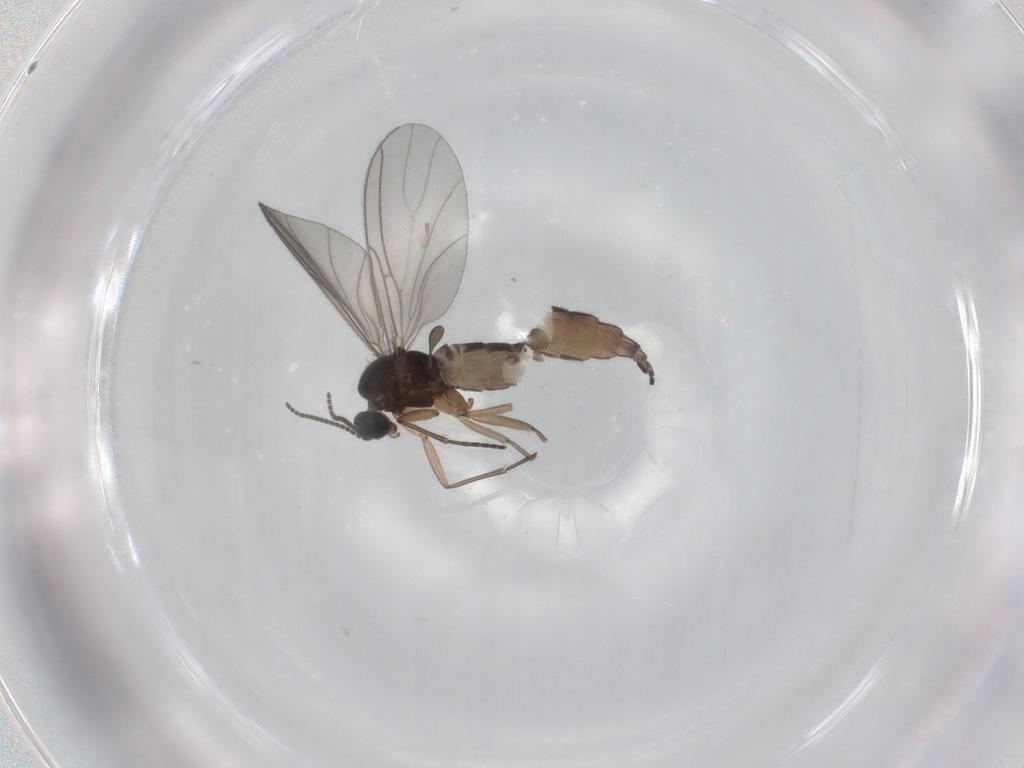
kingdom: Animalia
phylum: Arthropoda
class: Insecta
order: Diptera
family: Sciaridae
